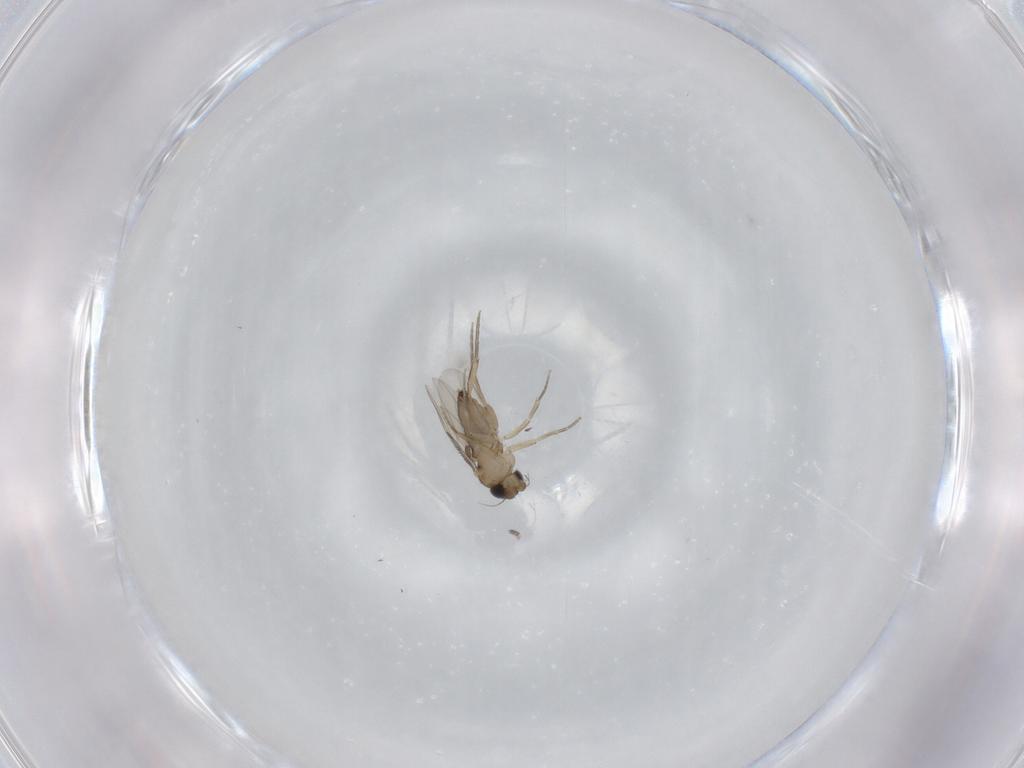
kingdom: Animalia
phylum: Arthropoda
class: Insecta
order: Diptera
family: Phoridae
